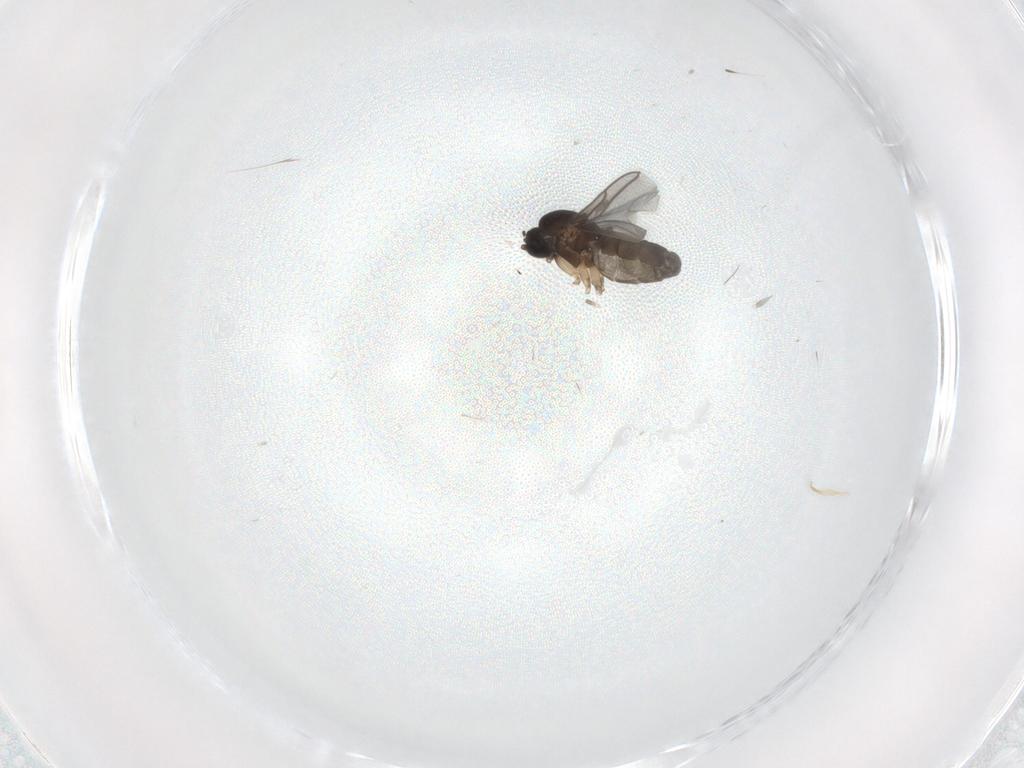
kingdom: Animalia
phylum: Arthropoda
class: Insecta
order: Diptera
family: Sciaridae
